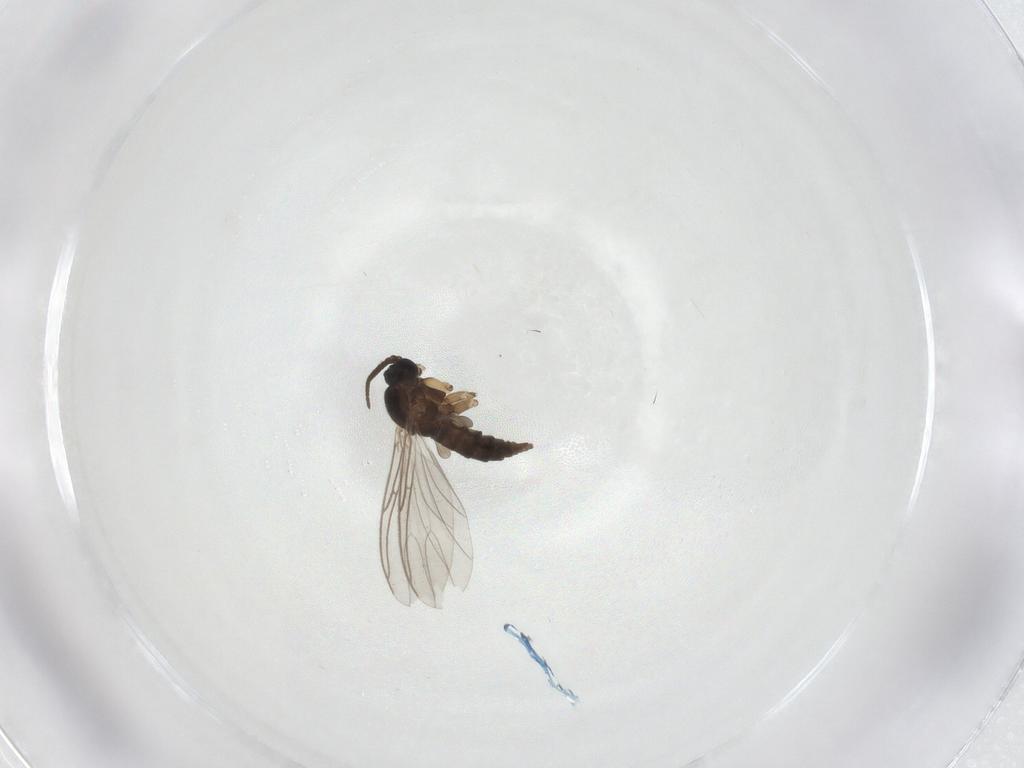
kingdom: Animalia
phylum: Arthropoda
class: Insecta
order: Diptera
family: Sciaridae
